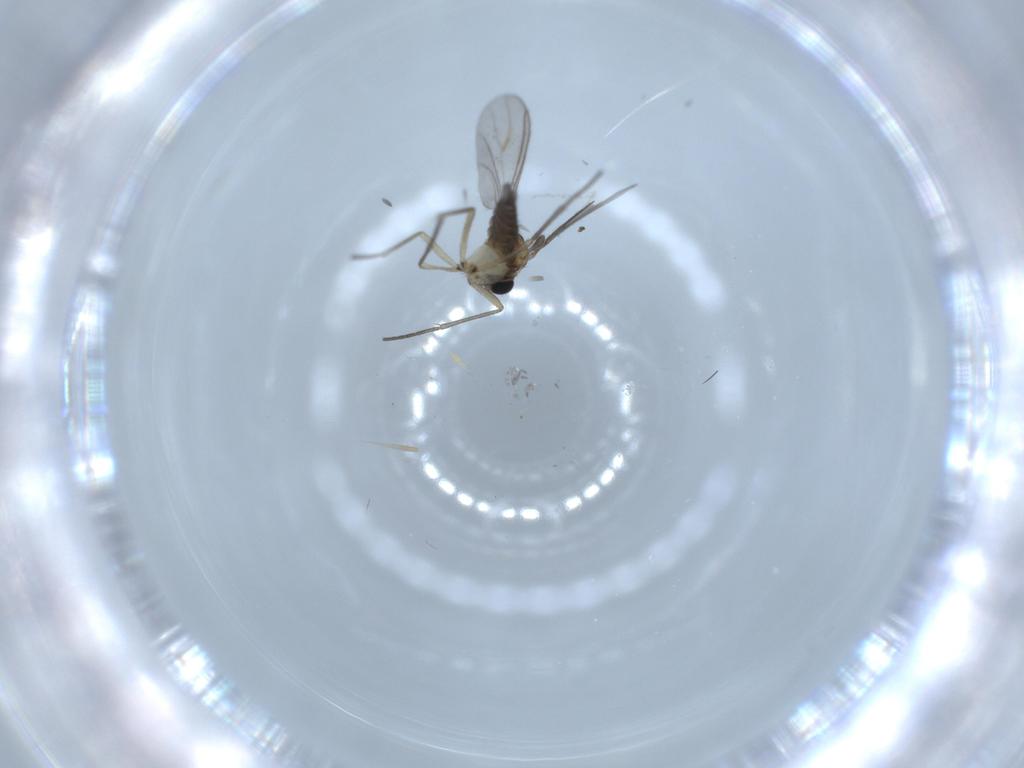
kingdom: Animalia
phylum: Arthropoda
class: Insecta
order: Diptera
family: Sciaridae
